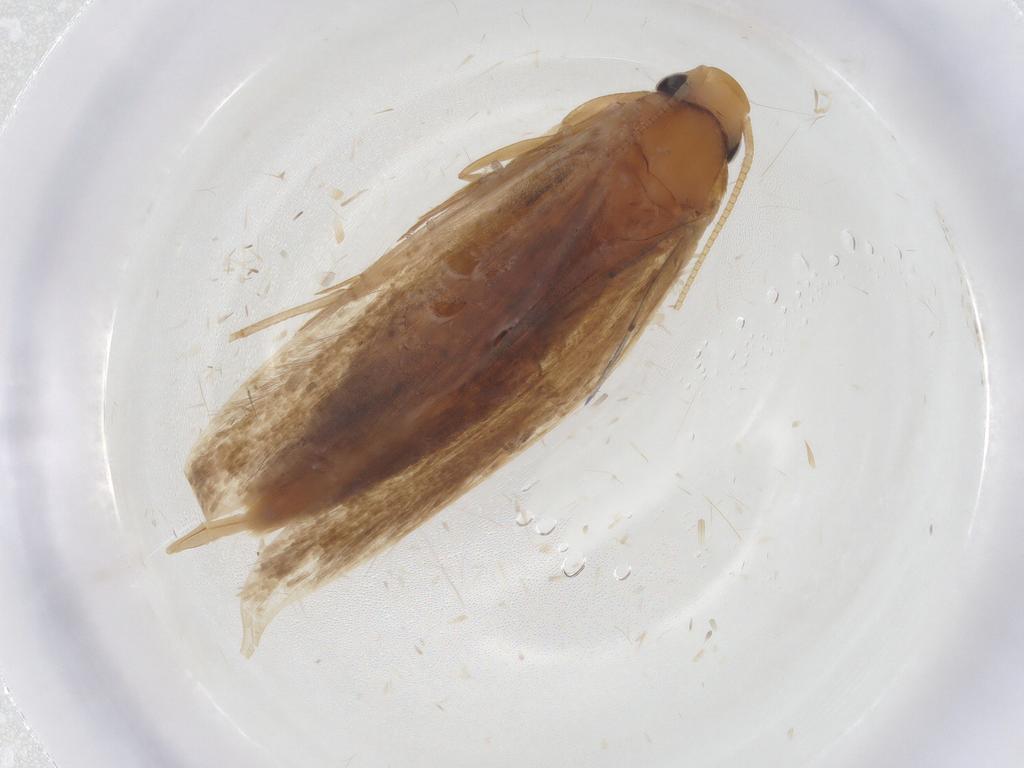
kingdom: Animalia
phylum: Arthropoda
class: Insecta
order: Lepidoptera
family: Tineidae
